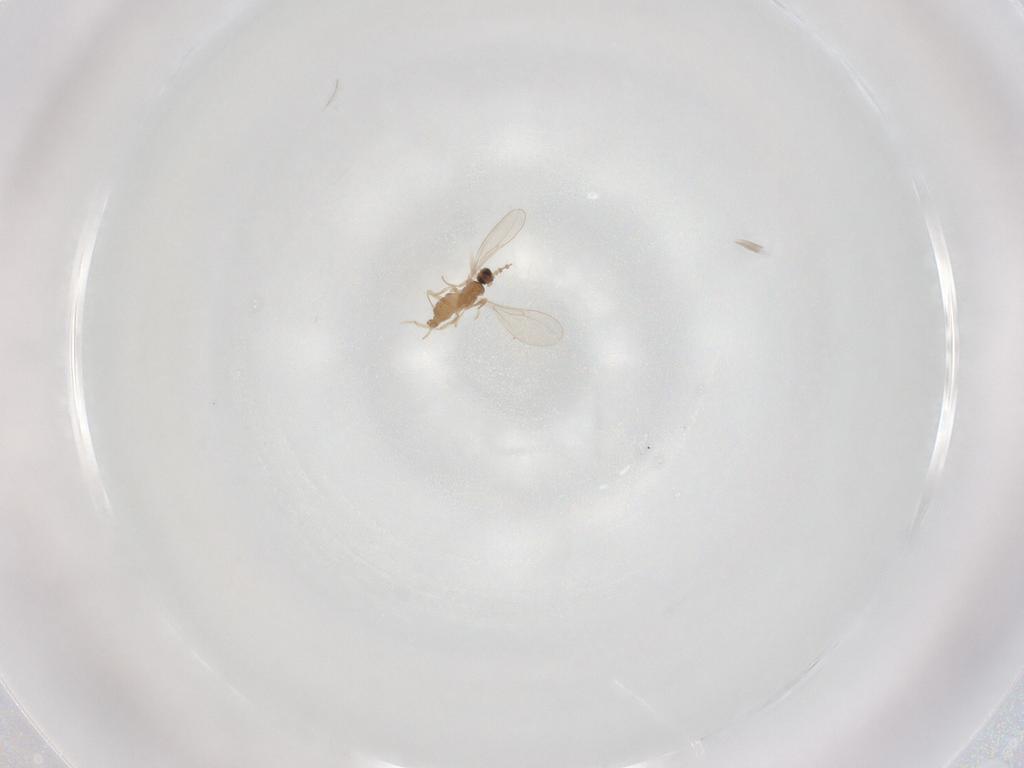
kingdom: Animalia
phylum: Arthropoda
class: Insecta
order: Diptera
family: Cecidomyiidae
